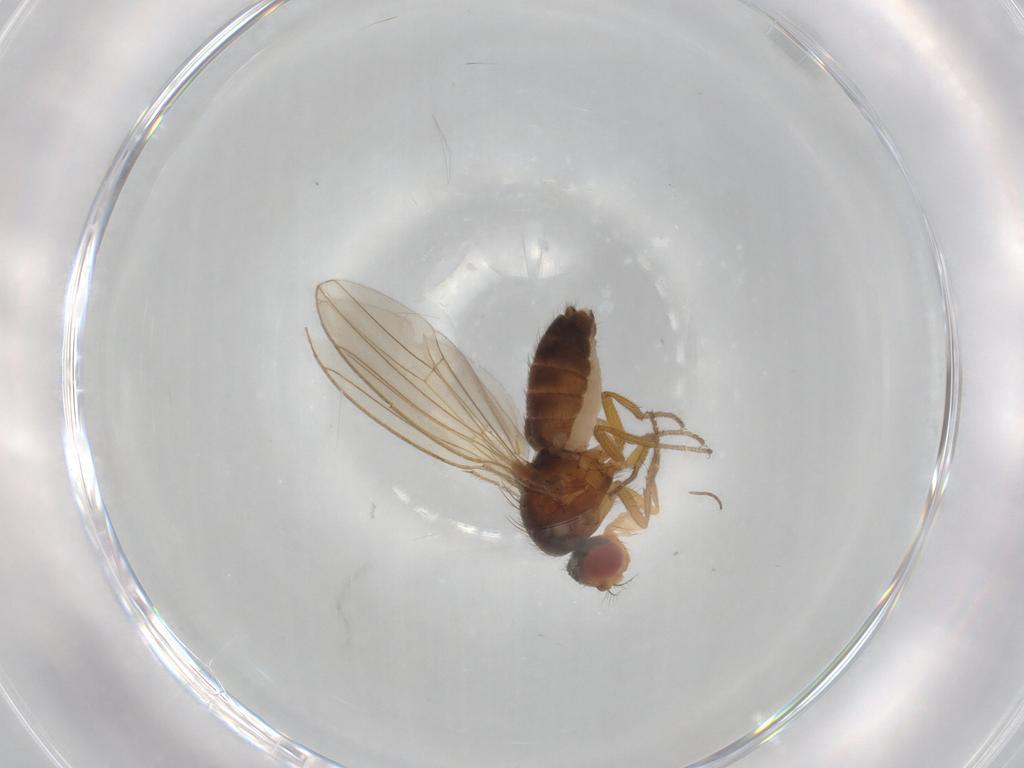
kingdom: Animalia
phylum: Arthropoda
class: Insecta
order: Diptera
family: Drosophilidae
